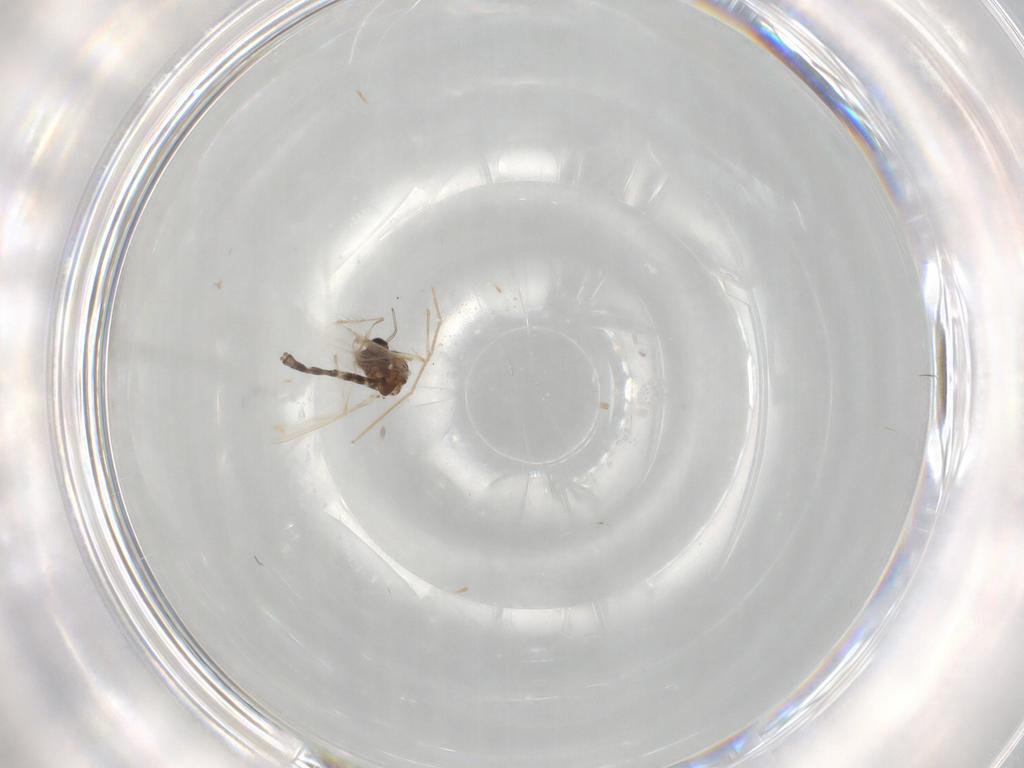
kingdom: Animalia
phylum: Arthropoda
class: Insecta
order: Diptera
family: Chironomidae
